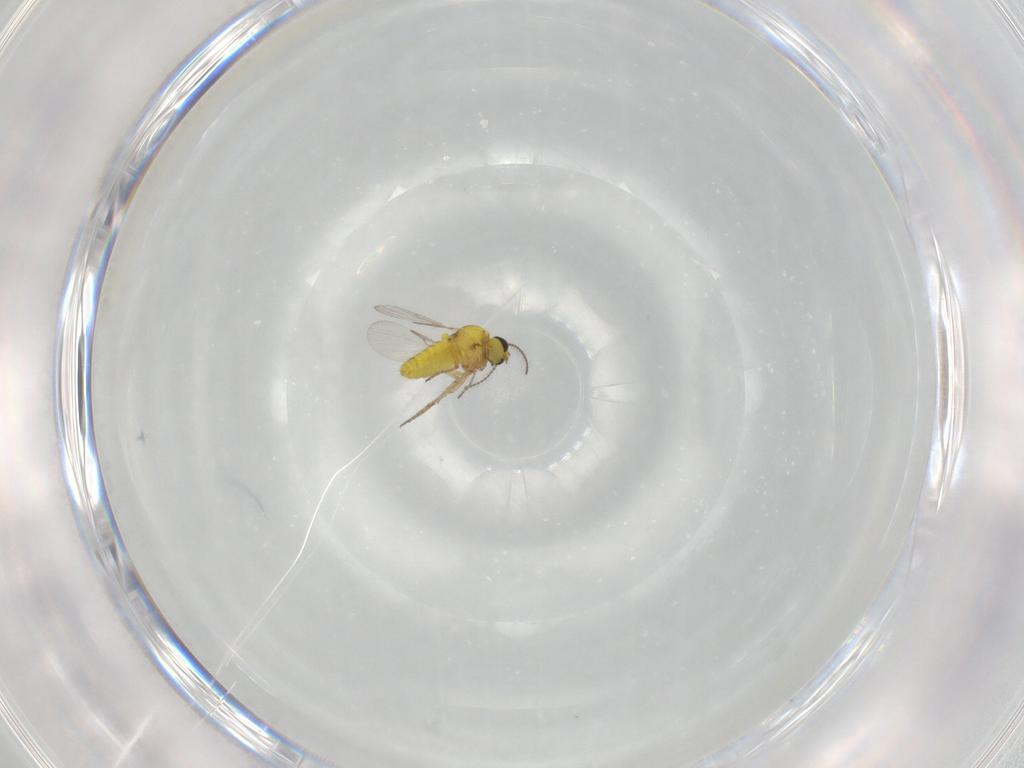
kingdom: Animalia
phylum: Arthropoda
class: Insecta
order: Diptera
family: Ceratopogonidae
